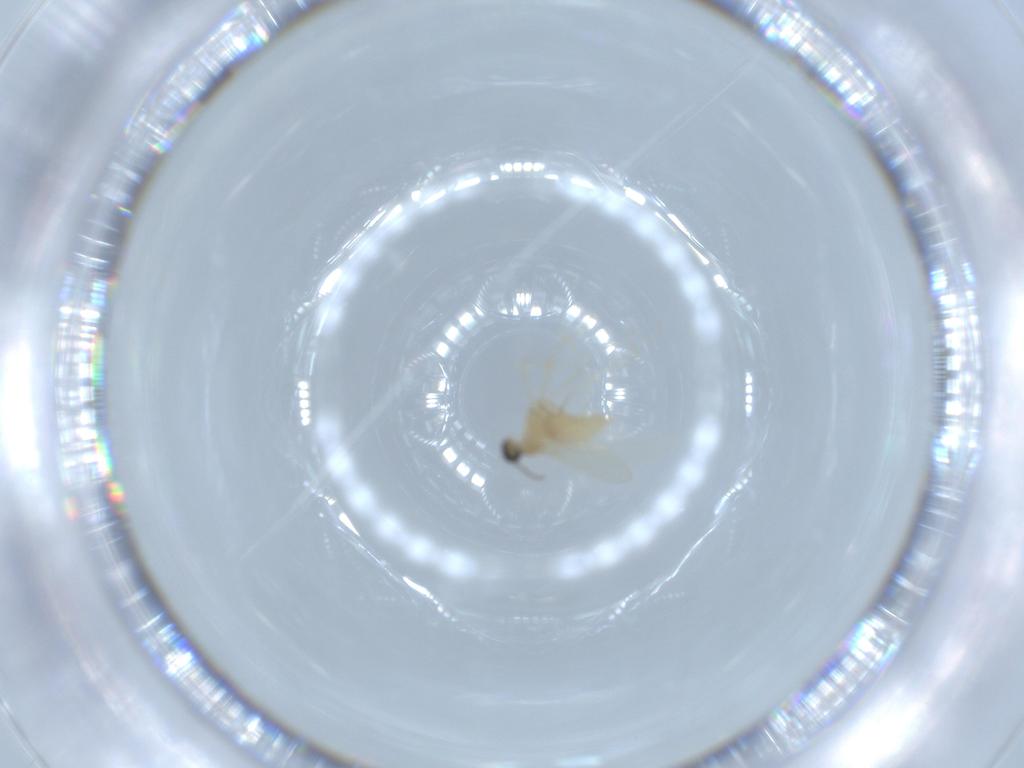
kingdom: Animalia
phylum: Arthropoda
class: Insecta
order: Diptera
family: Cecidomyiidae
